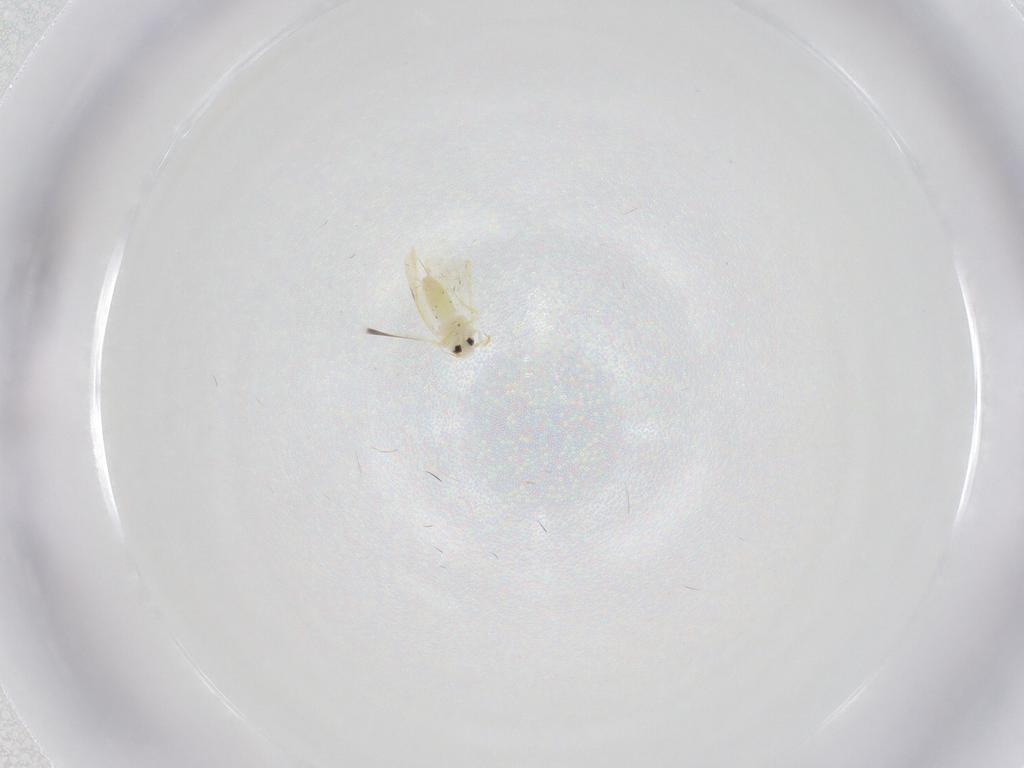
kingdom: Animalia
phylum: Arthropoda
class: Insecta
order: Hemiptera
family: Cicadellidae
